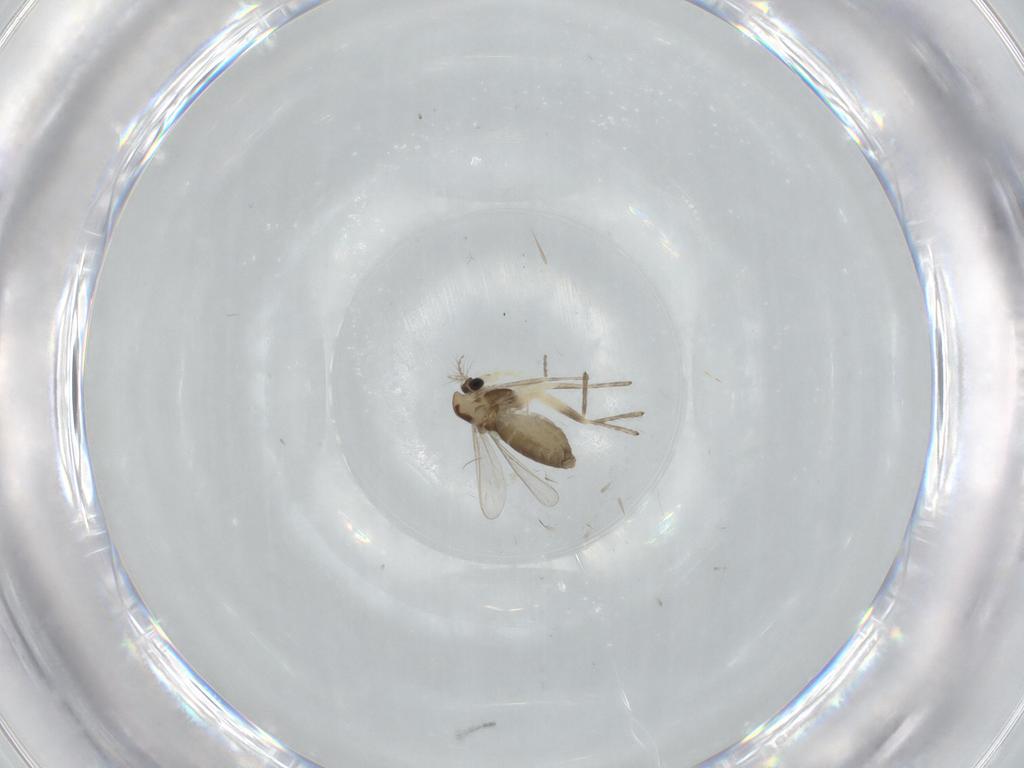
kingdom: Animalia
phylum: Arthropoda
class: Insecta
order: Diptera
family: Chironomidae
